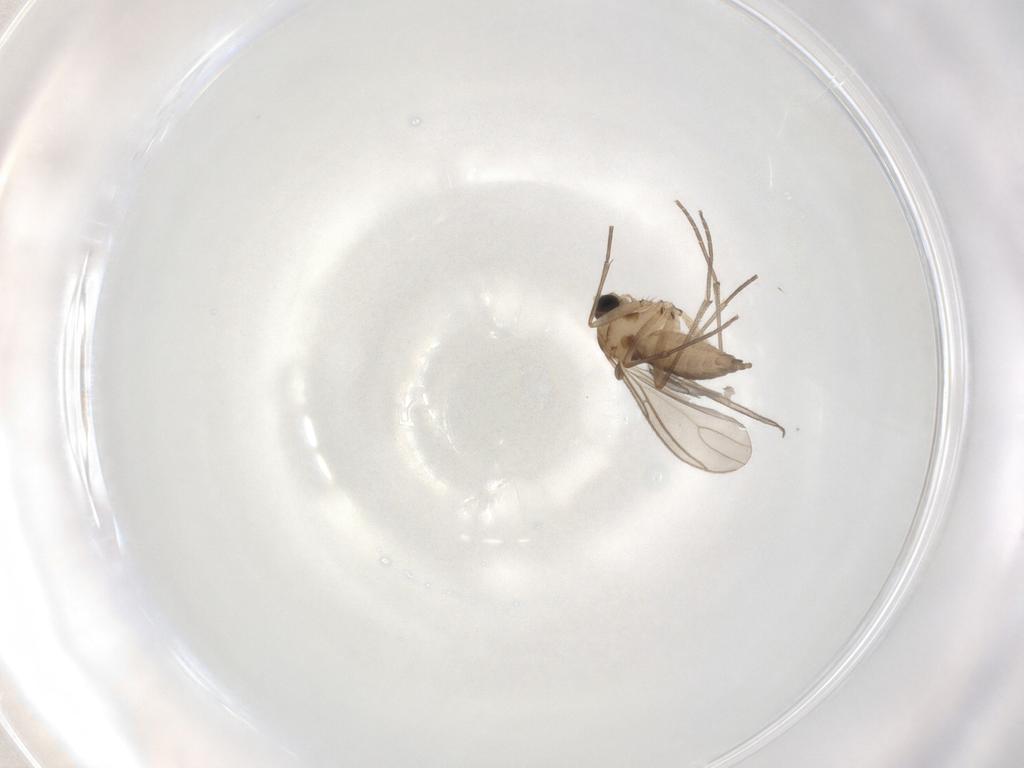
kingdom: Animalia
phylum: Arthropoda
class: Insecta
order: Diptera
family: Sciaridae
